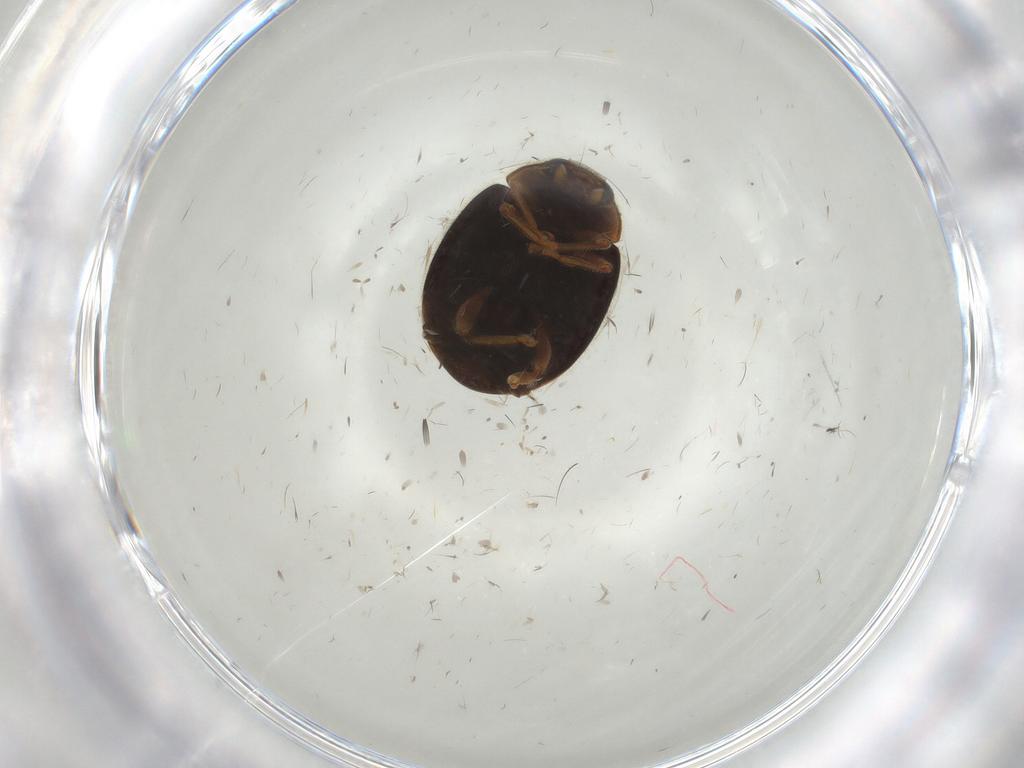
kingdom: Animalia
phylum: Arthropoda
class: Insecta
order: Coleoptera
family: Coccinellidae
